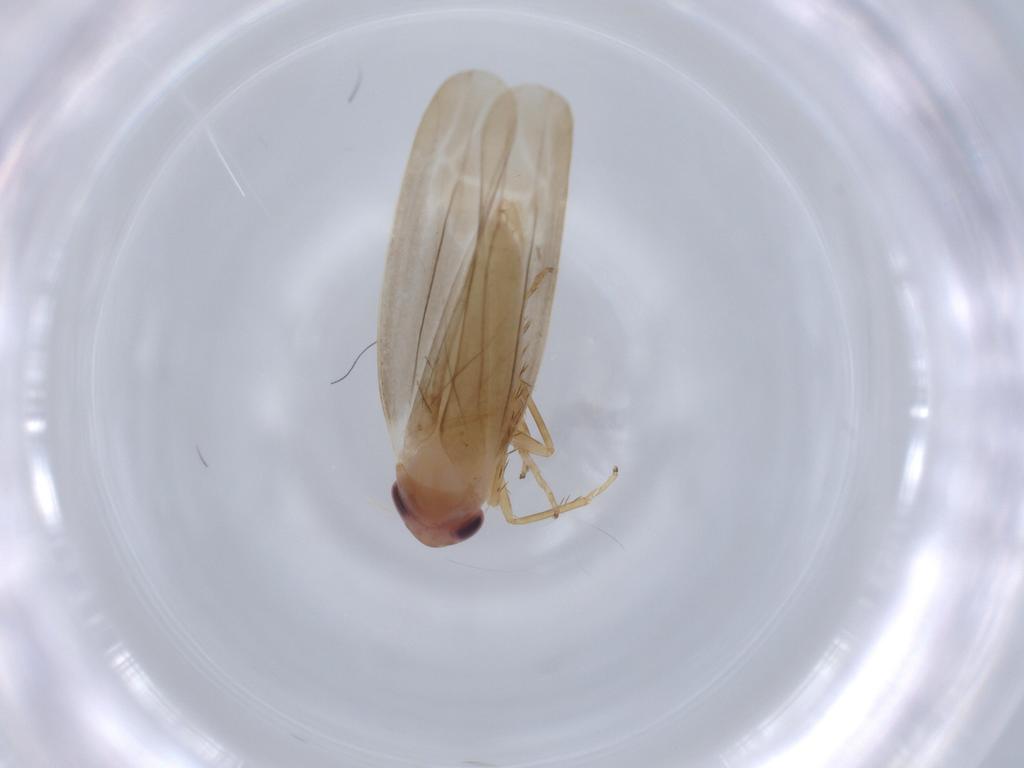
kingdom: Animalia
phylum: Arthropoda
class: Insecta
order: Hemiptera
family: Cicadellidae
